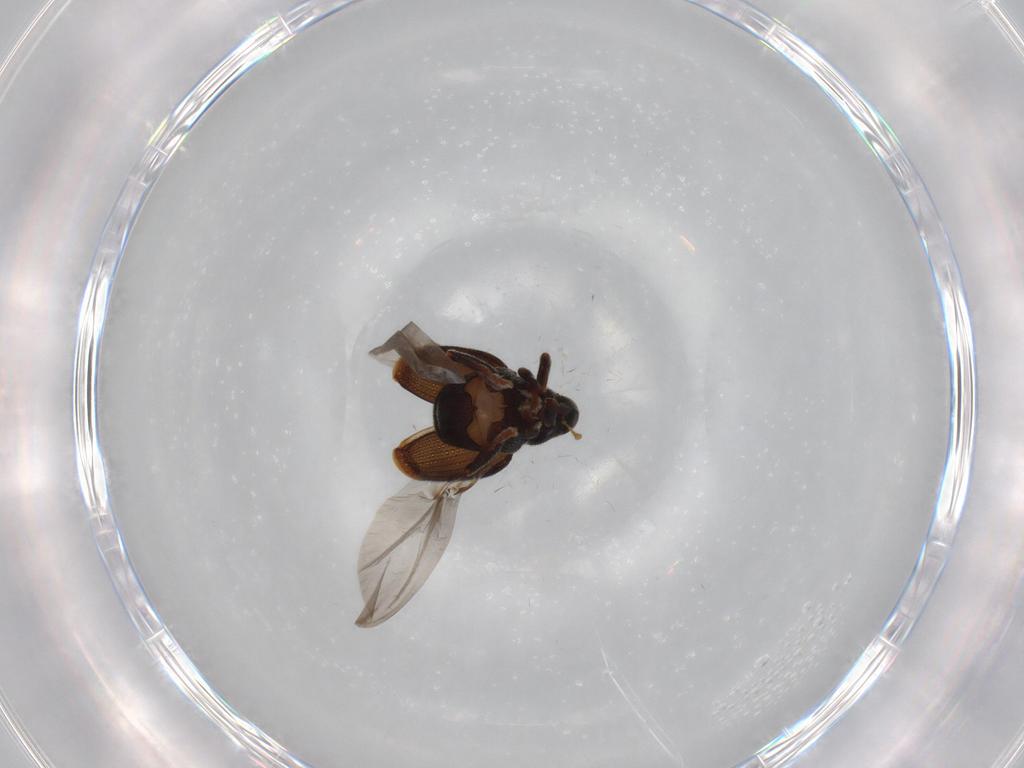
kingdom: Animalia
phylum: Arthropoda
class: Insecta
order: Coleoptera
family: Curculionidae
